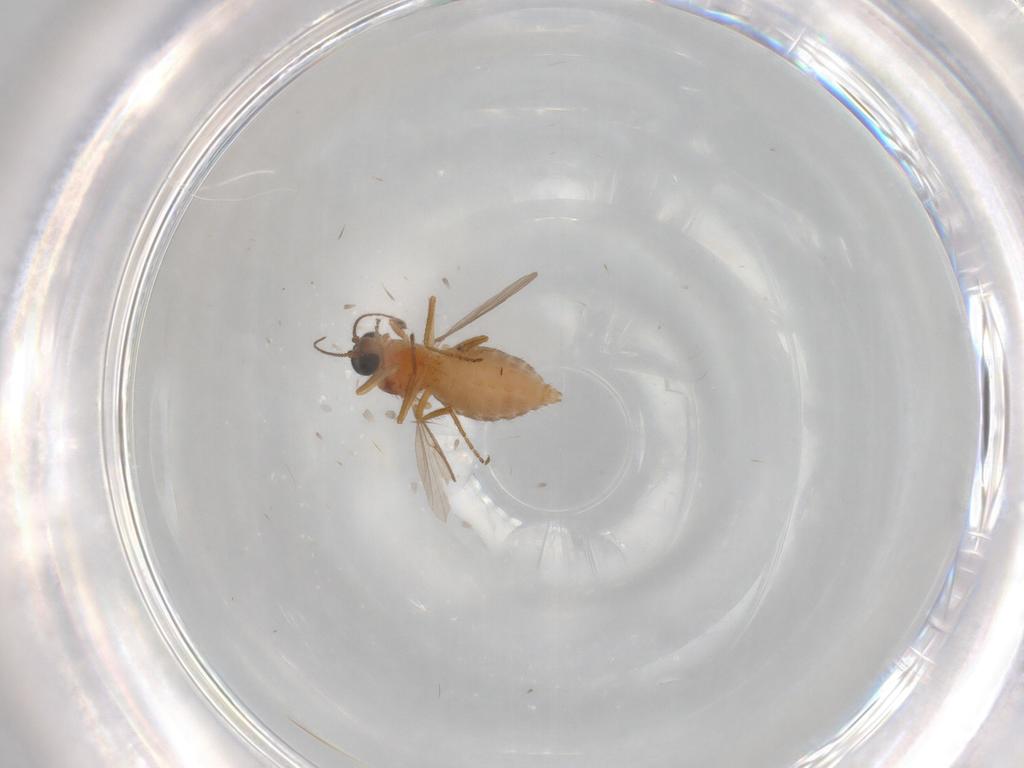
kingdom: Animalia
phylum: Arthropoda
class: Insecta
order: Diptera
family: Ceratopogonidae
